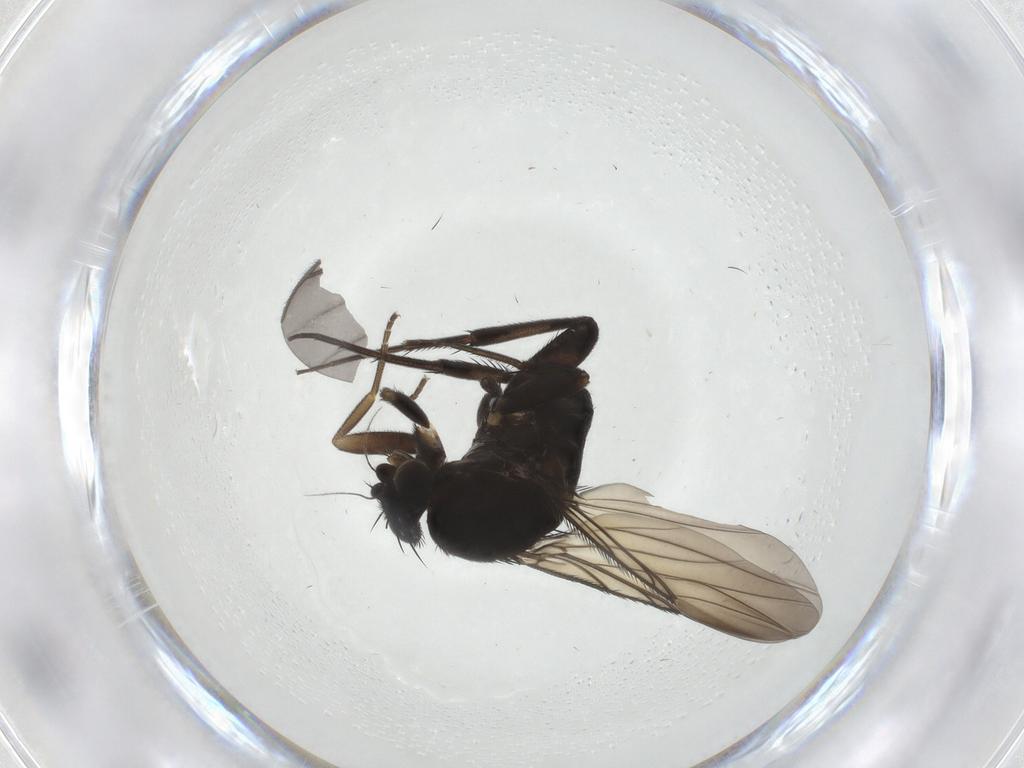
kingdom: Animalia
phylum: Arthropoda
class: Insecta
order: Diptera
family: Phoridae
